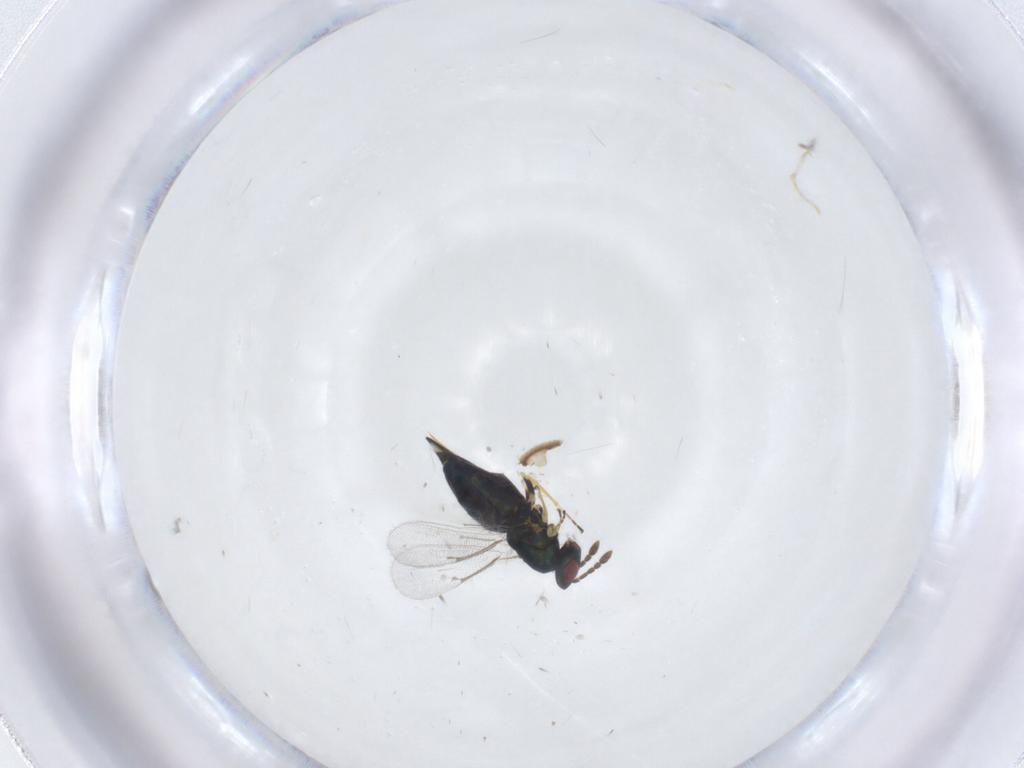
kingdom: Animalia
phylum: Arthropoda
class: Insecta
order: Hymenoptera
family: Eulophidae
